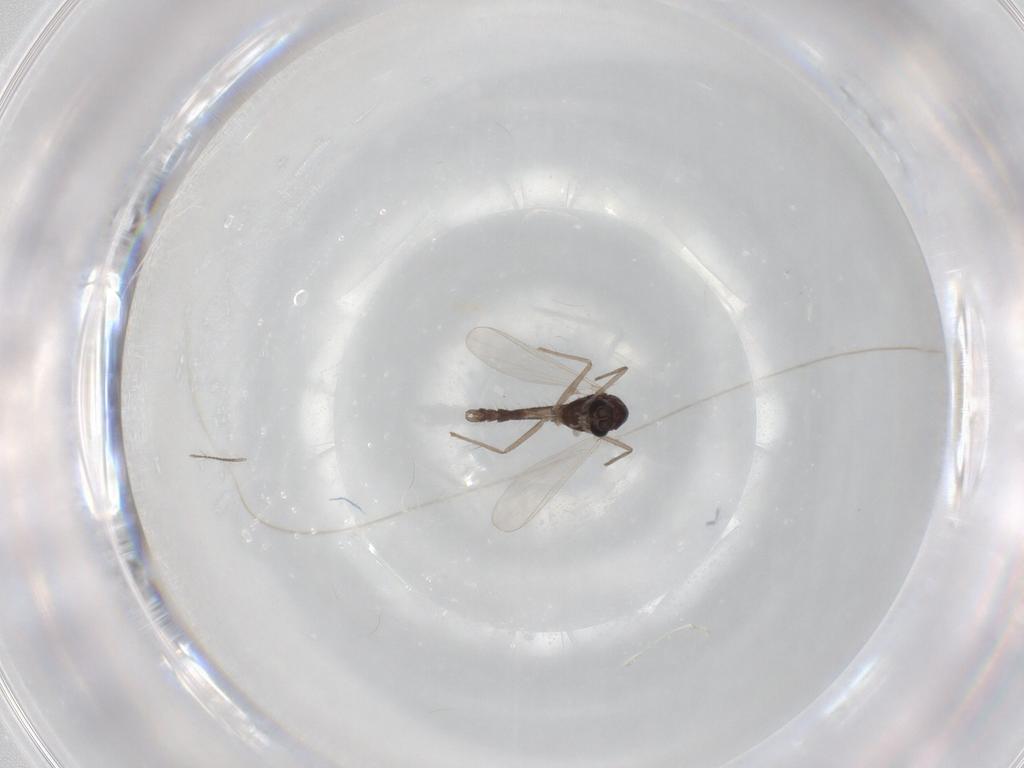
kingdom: Animalia
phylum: Arthropoda
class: Insecta
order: Diptera
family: Chironomidae
